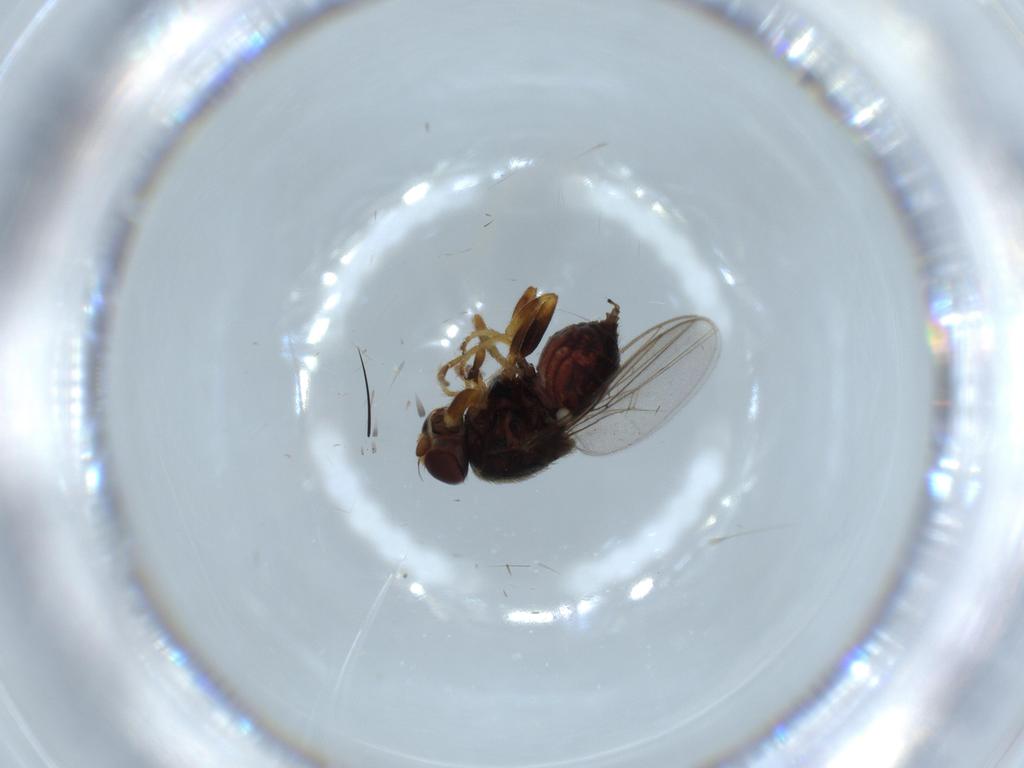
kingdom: Animalia
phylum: Arthropoda
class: Insecta
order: Diptera
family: Chloropidae
